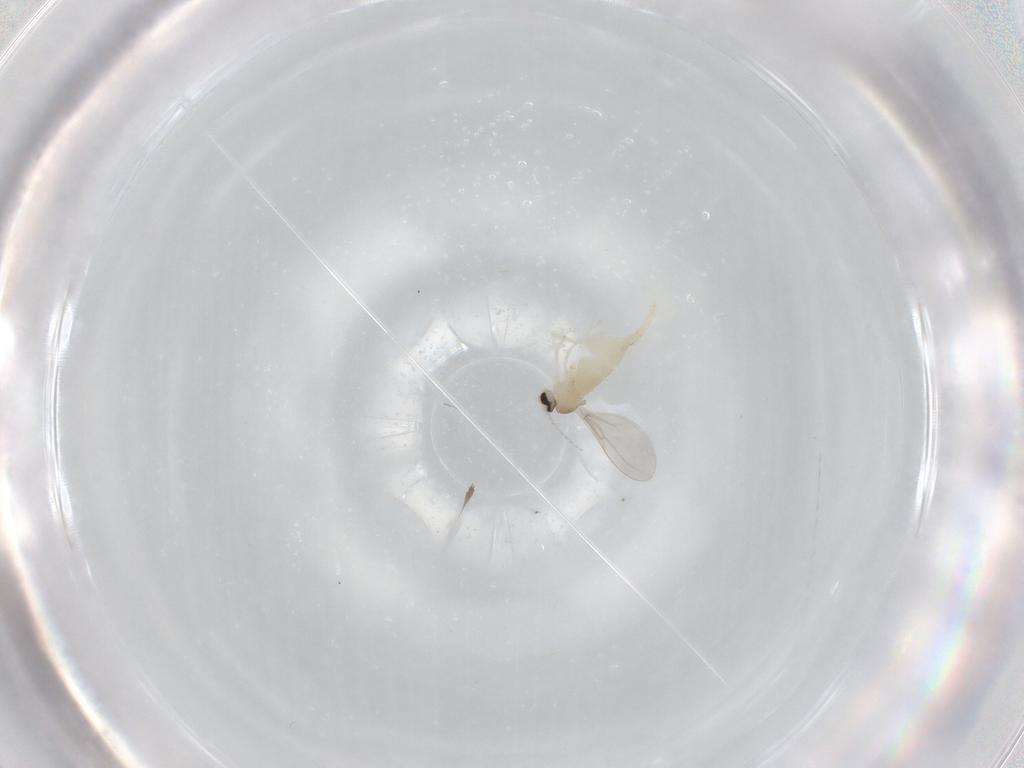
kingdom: Animalia
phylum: Arthropoda
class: Insecta
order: Diptera
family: Cecidomyiidae
